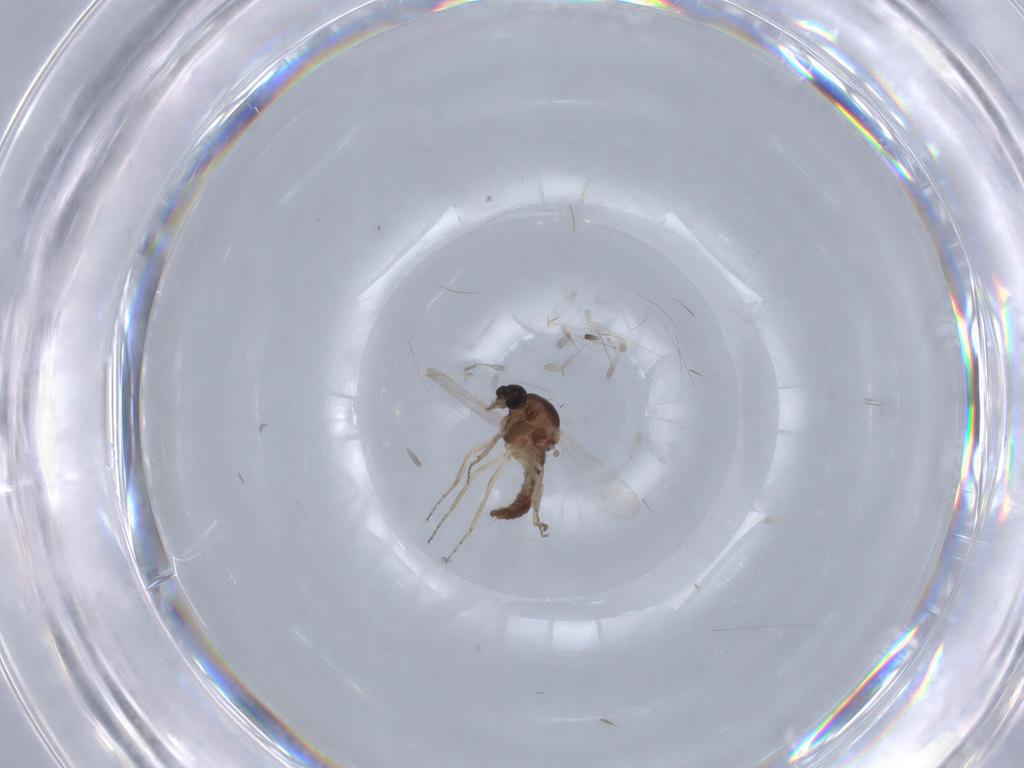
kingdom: Animalia
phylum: Arthropoda
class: Insecta
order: Diptera
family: Ceratopogonidae
